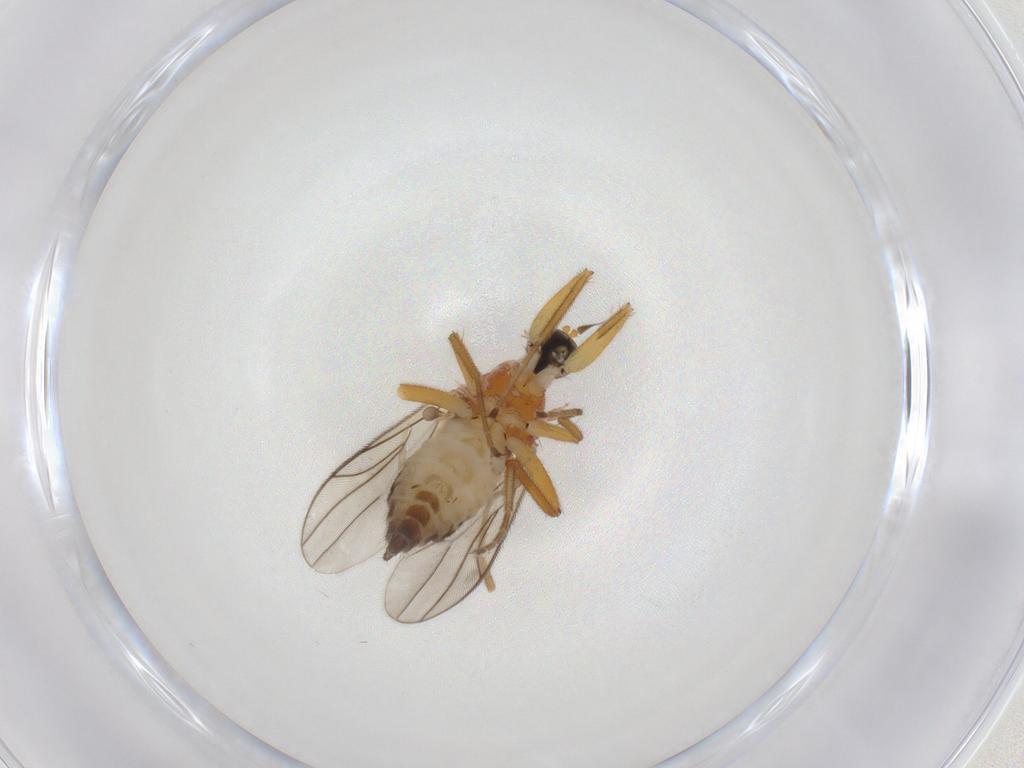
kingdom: Animalia
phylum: Arthropoda
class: Insecta
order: Diptera
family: Hybotidae
